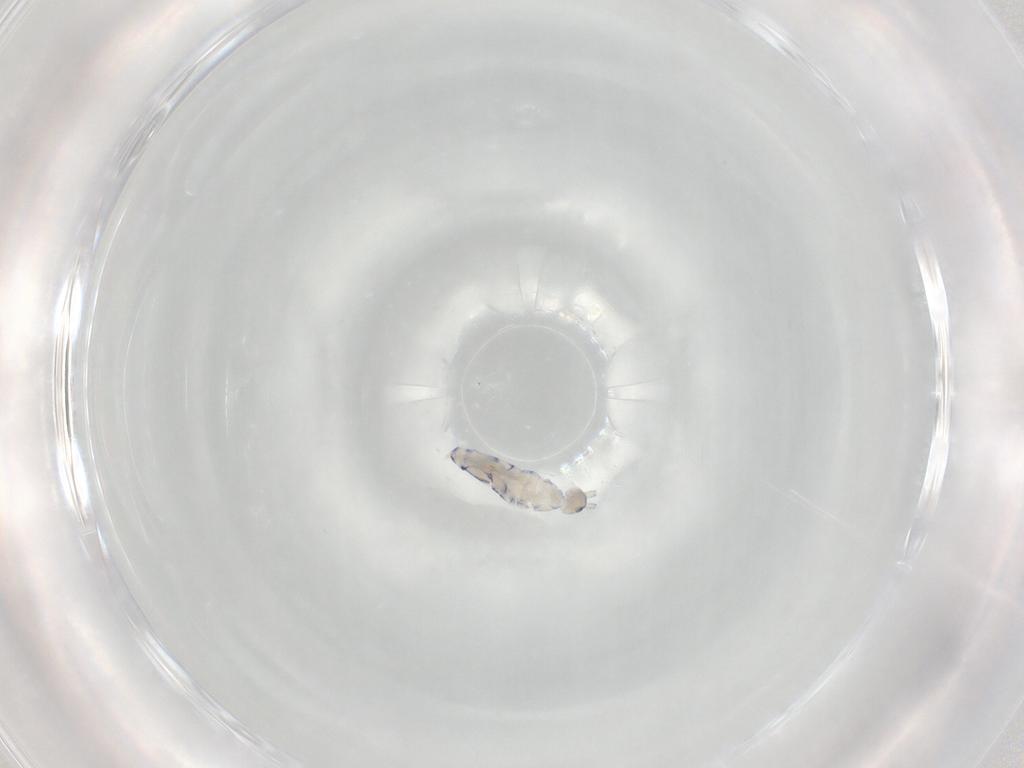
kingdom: Animalia
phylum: Arthropoda
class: Collembola
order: Entomobryomorpha
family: Entomobryidae
